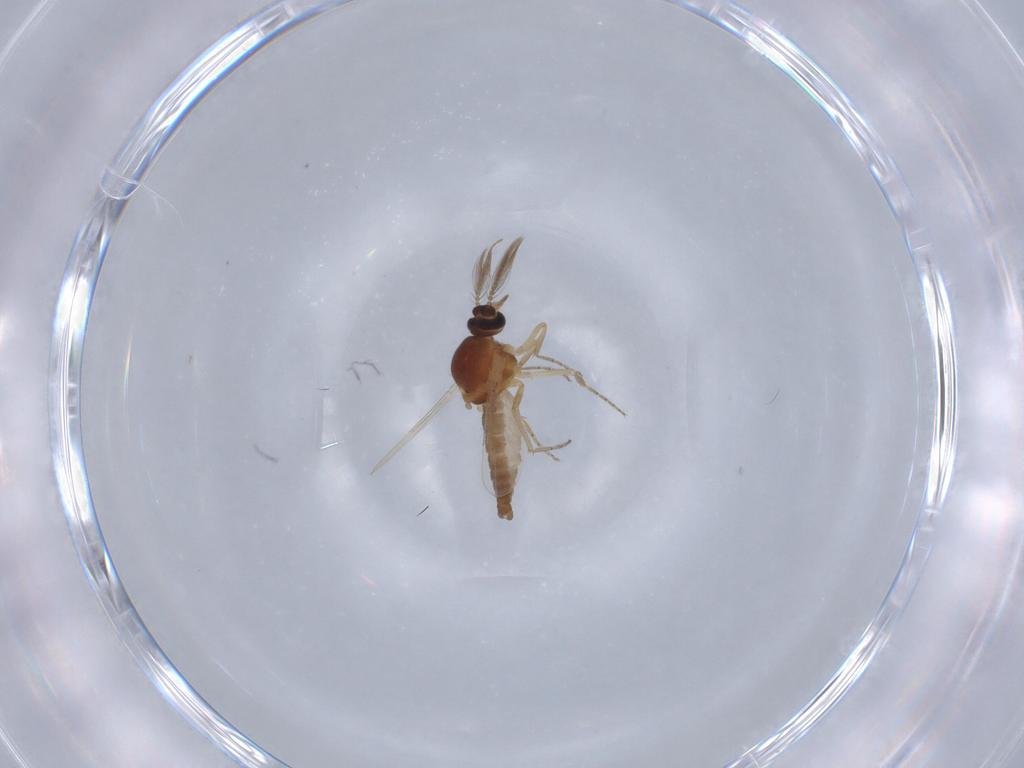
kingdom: Animalia
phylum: Arthropoda
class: Insecta
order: Diptera
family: Ceratopogonidae
